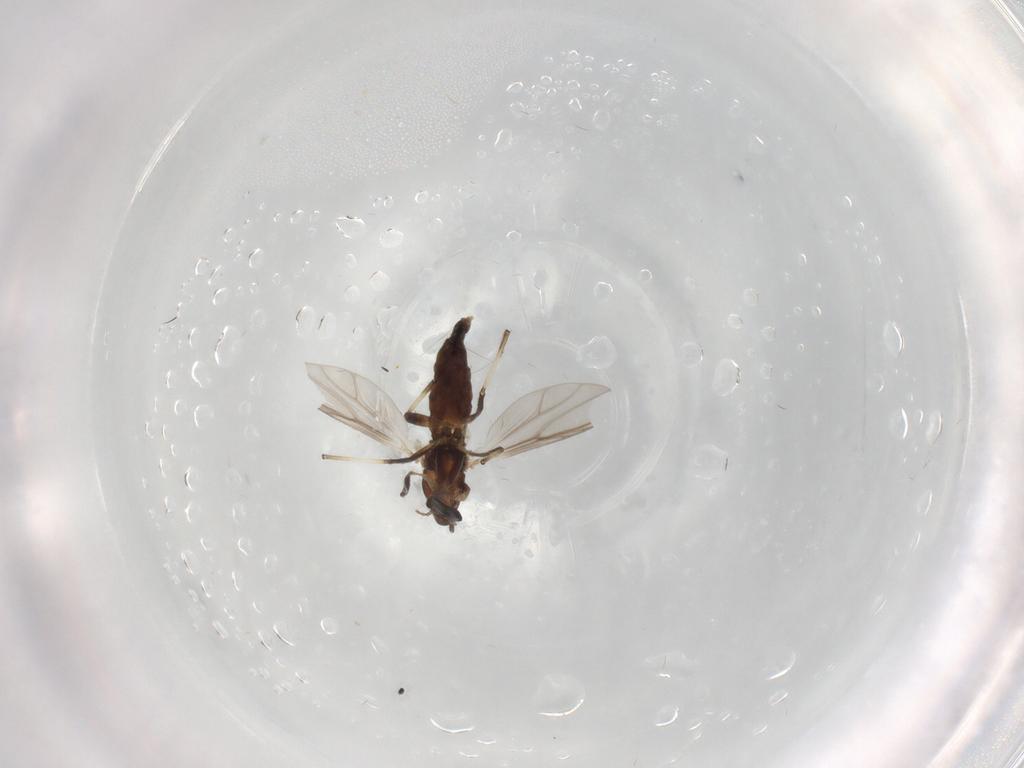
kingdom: Animalia
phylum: Arthropoda
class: Insecta
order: Diptera
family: Chironomidae
